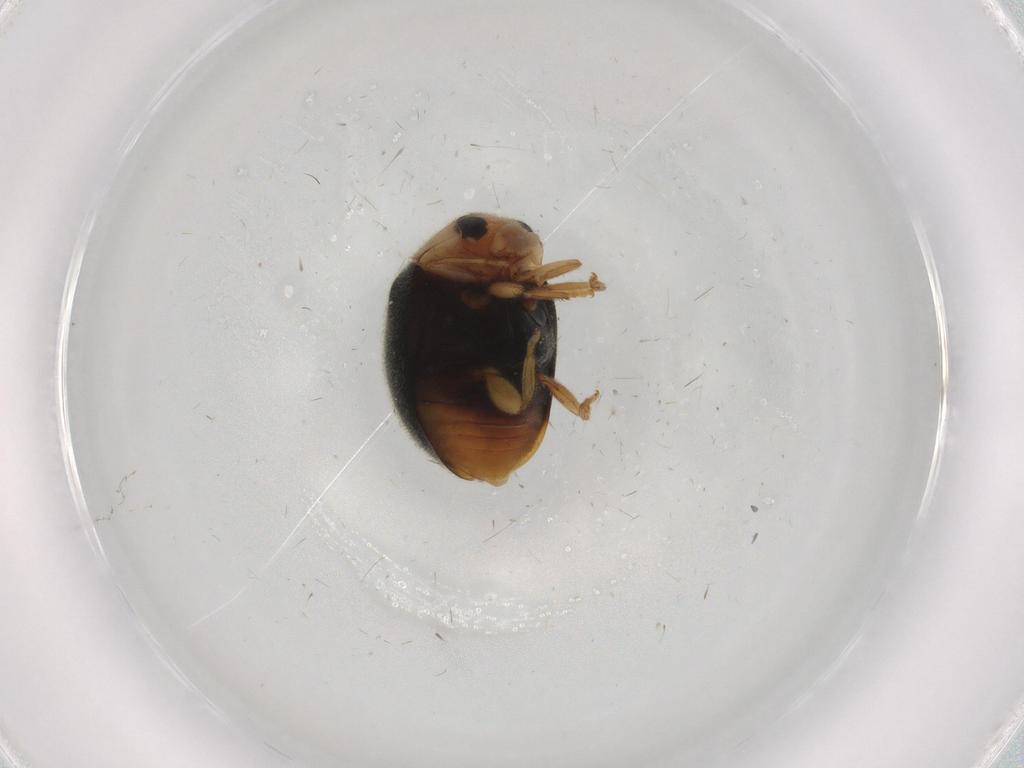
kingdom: Animalia
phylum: Arthropoda
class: Insecta
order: Coleoptera
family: Coccinellidae
